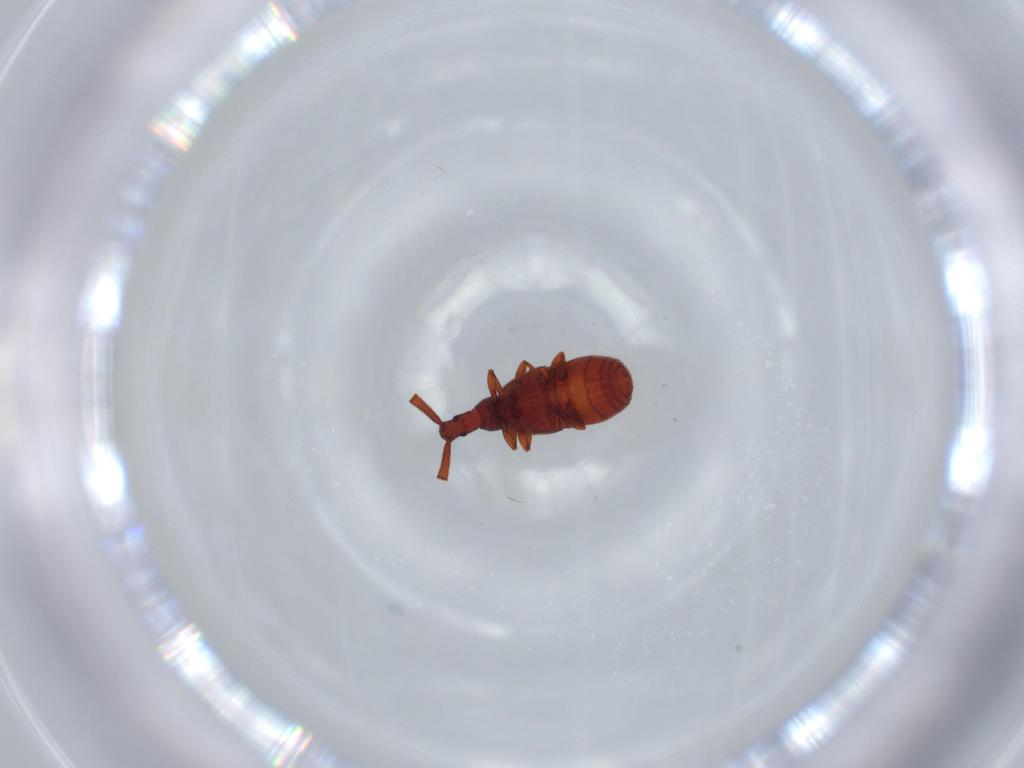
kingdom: Animalia
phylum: Arthropoda
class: Insecta
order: Coleoptera
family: Staphylinidae
